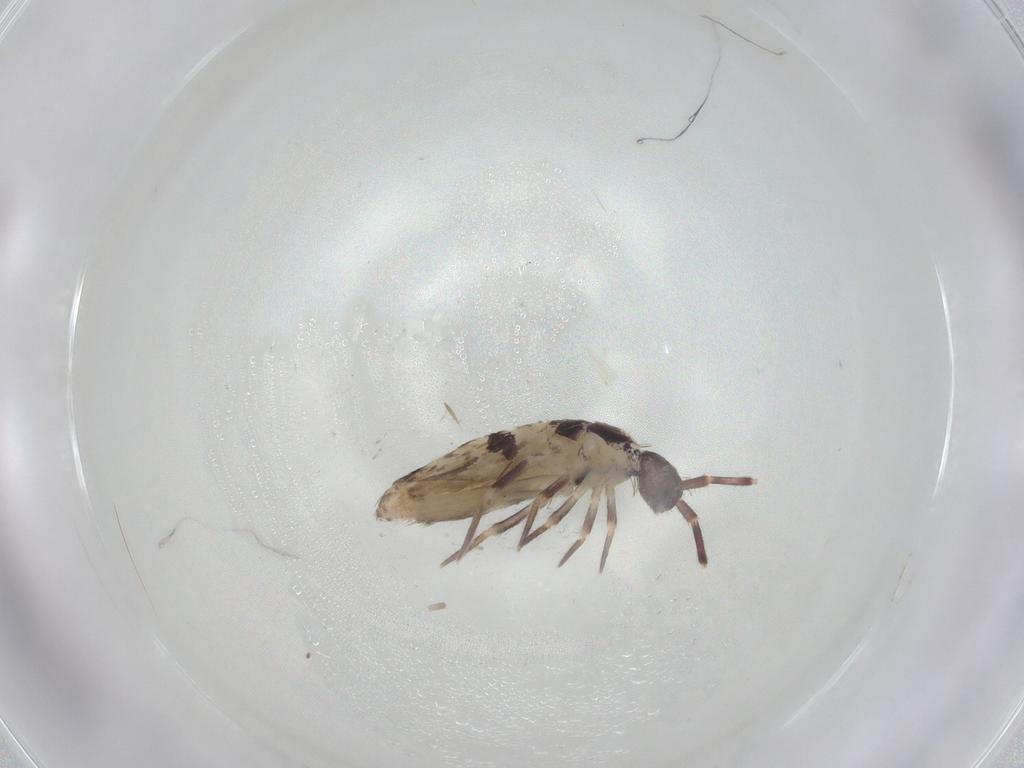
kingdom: Animalia
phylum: Arthropoda
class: Collembola
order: Entomobryomorpha
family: Entomobryidae
